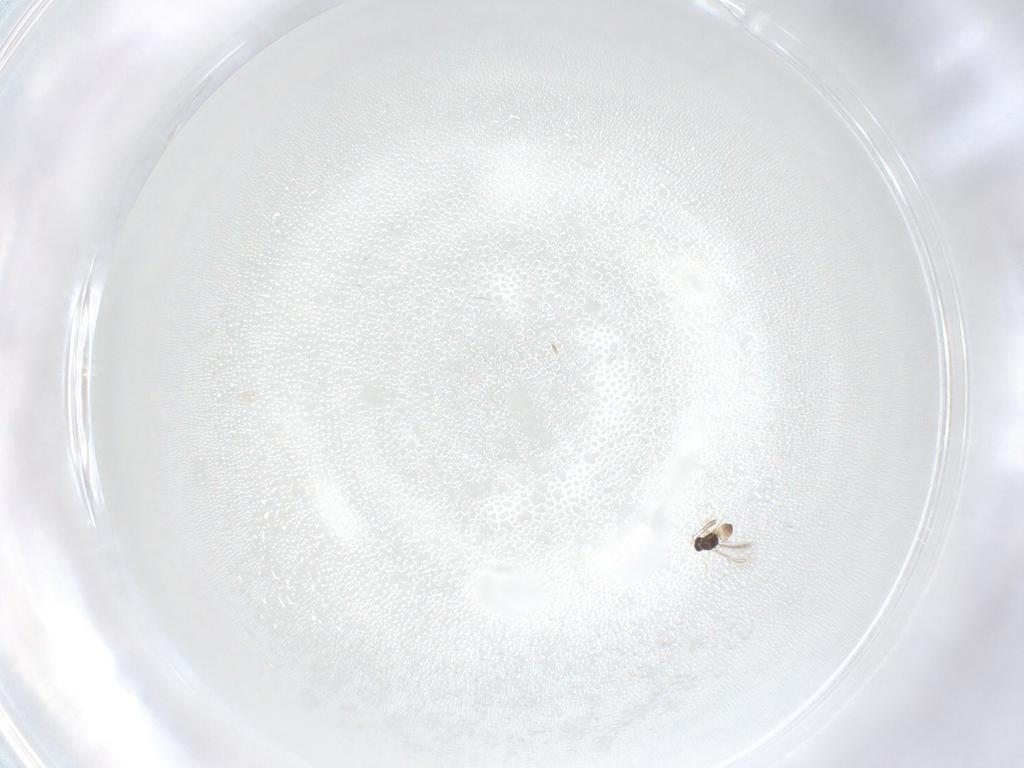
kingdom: Animalia
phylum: Arthropoda
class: Insecta
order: Hymenoptera
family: Mymaridae
